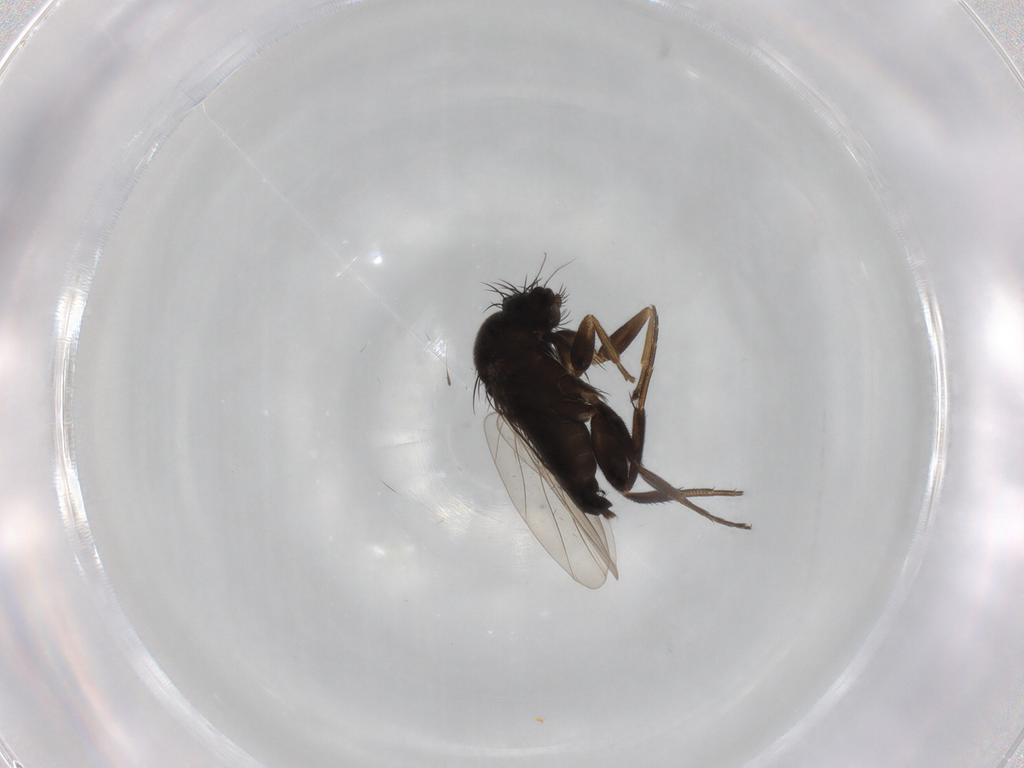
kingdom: Animalia
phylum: Arthropoda
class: Insecta
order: Diptera
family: Phoridae
